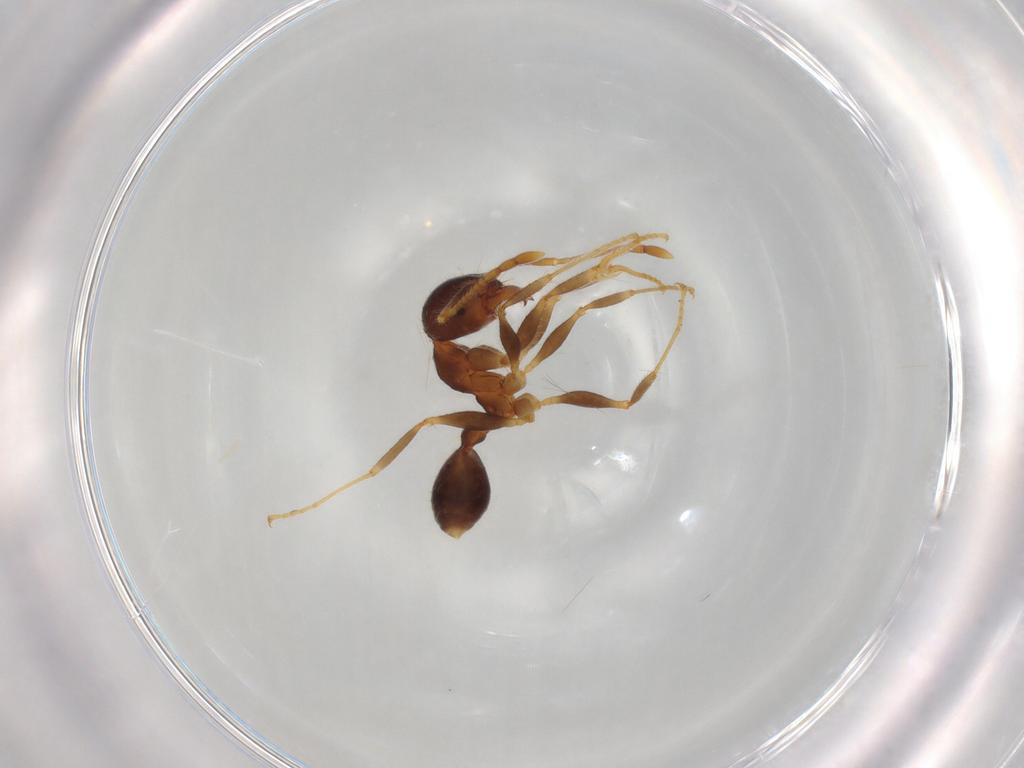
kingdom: Animalia
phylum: Arthropoda
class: Insecta
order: Hymenoptera
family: Formicidae
